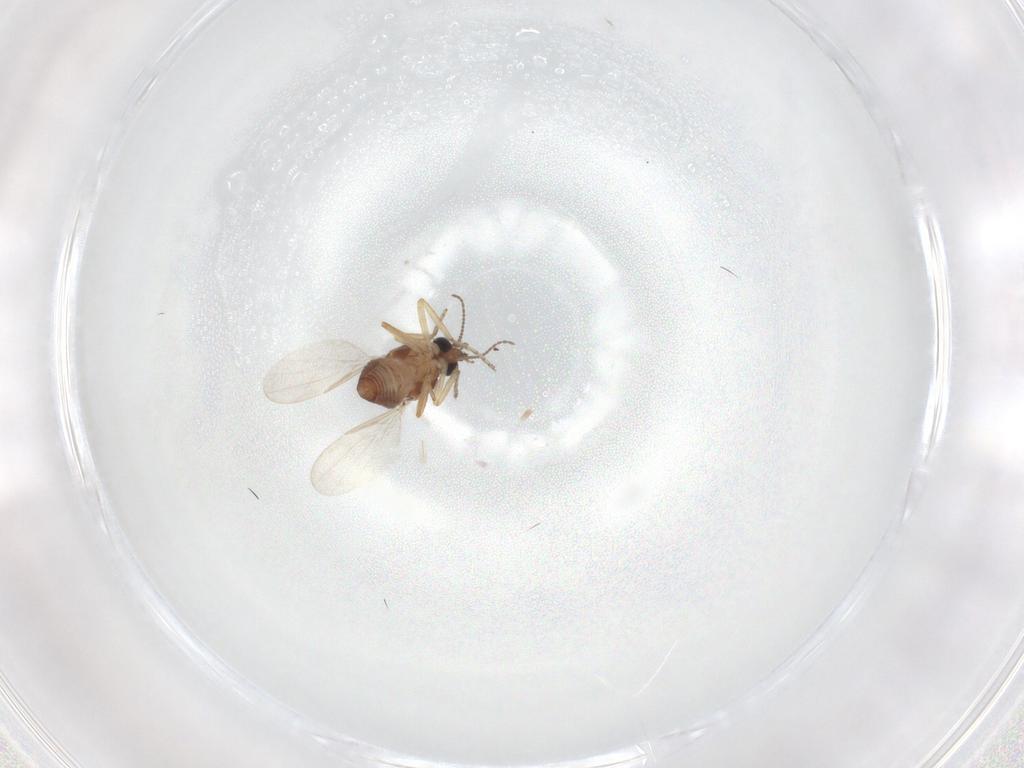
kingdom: Animalia
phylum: Arthropoda
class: Insecta
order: Diptera
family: Ceratopogonidae
